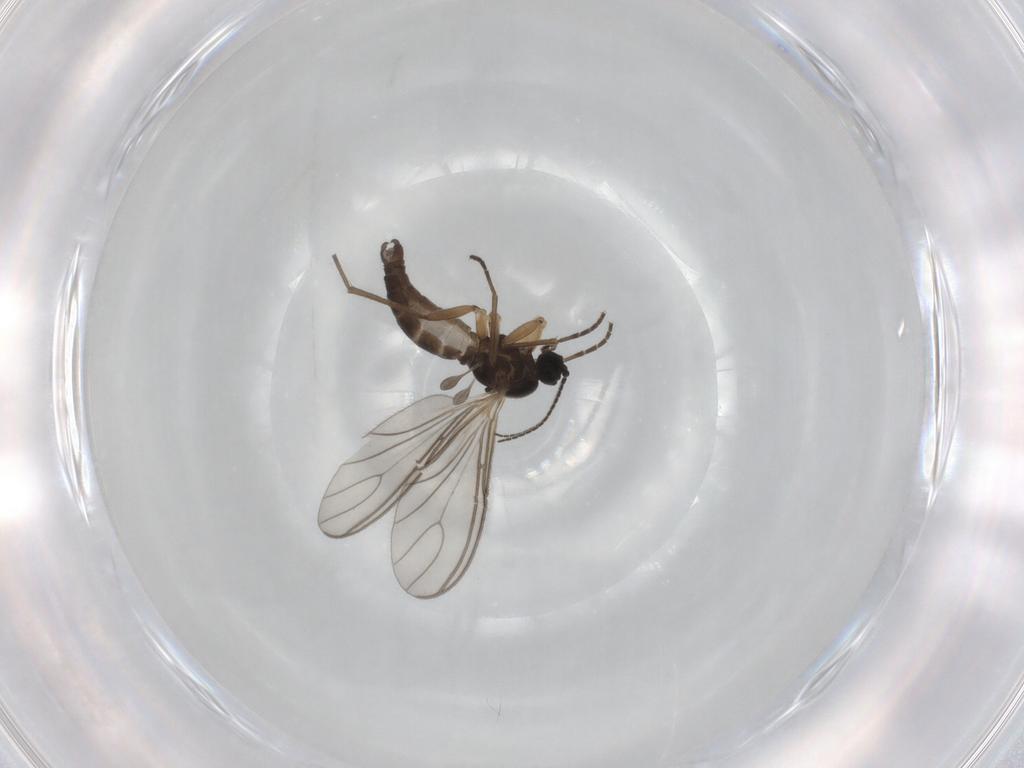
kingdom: Animalia
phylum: Arthropoda
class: Insecta
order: Diptera
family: Sciaridae
